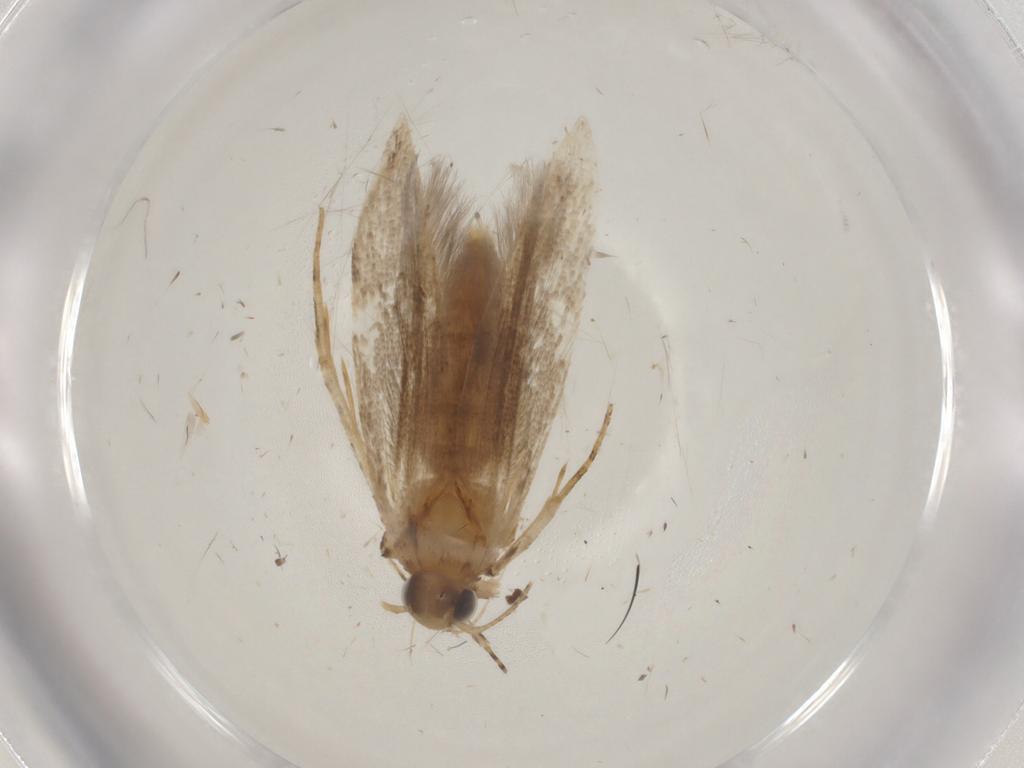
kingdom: Animalia
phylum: Arthropoda
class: Insecta
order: Lepidoptera
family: Gelechiidae
